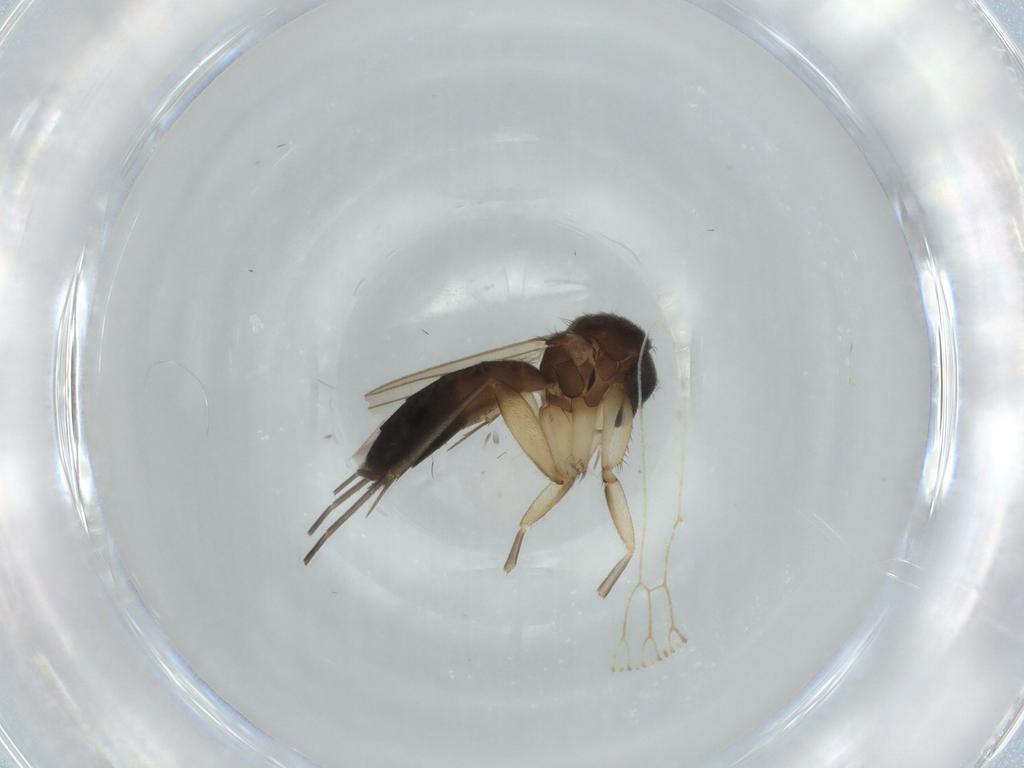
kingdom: Animalia
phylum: Arthropoda
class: Insecta
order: Diptera
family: Mycetophilidae
